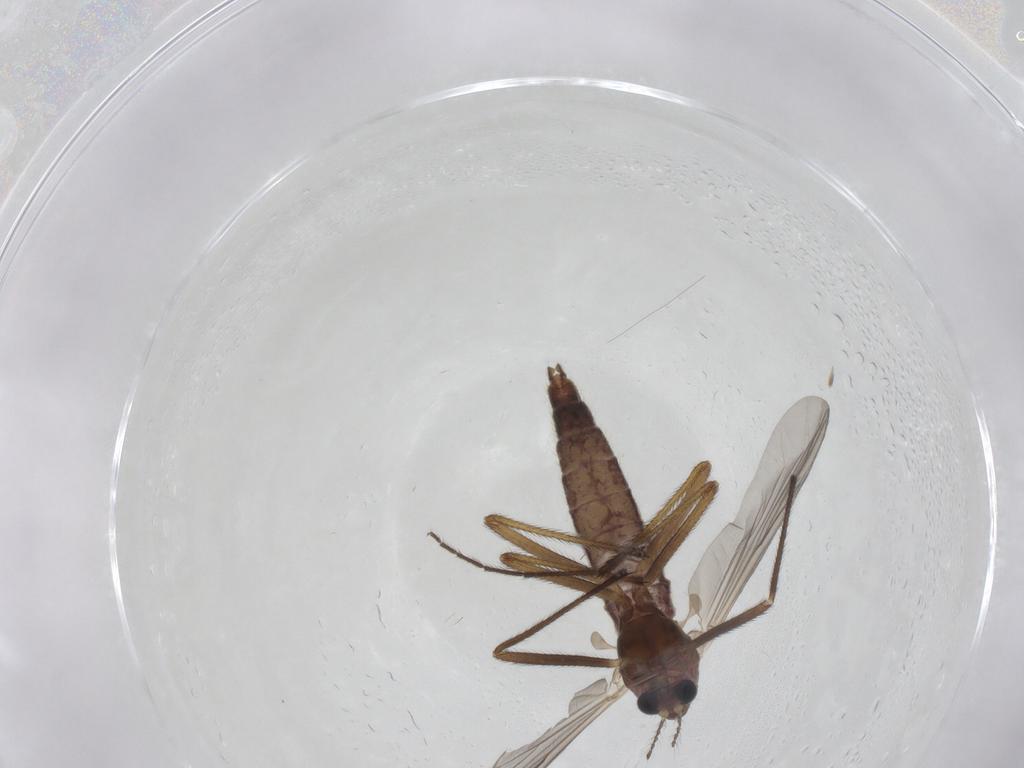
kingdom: Animalia
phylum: Arthropoda
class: Insecta
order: Diptera
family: Chironomidae
